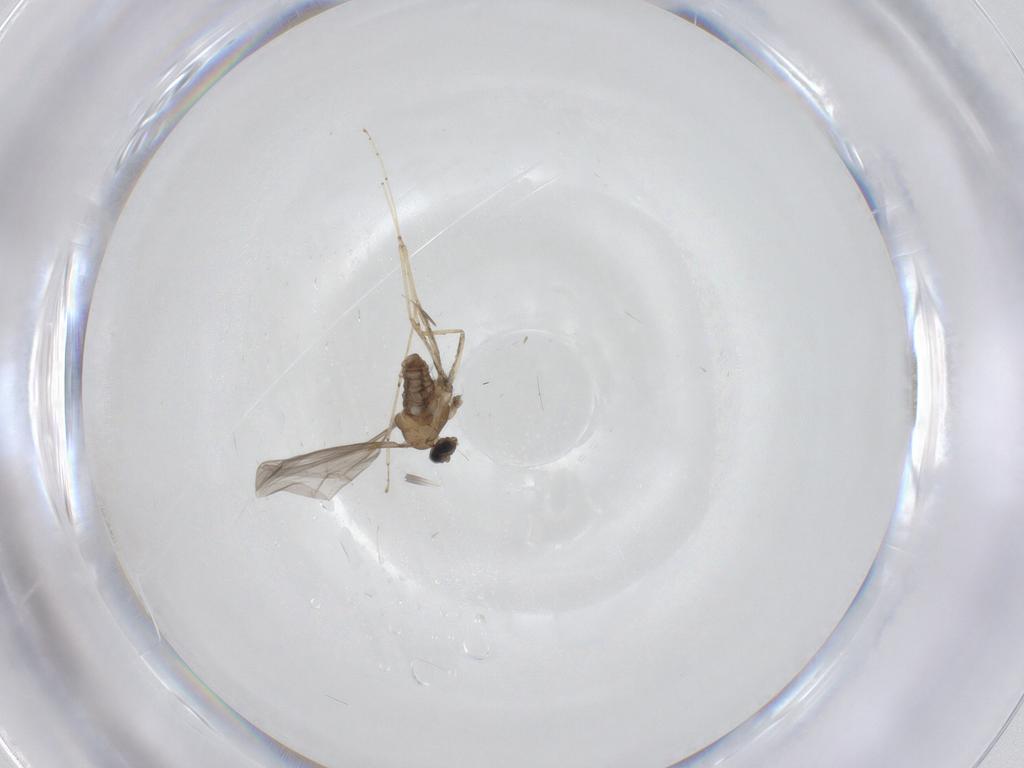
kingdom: Animalia
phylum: Arthropoda
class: Insecta
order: Diptera
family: Cecidomyiidae
